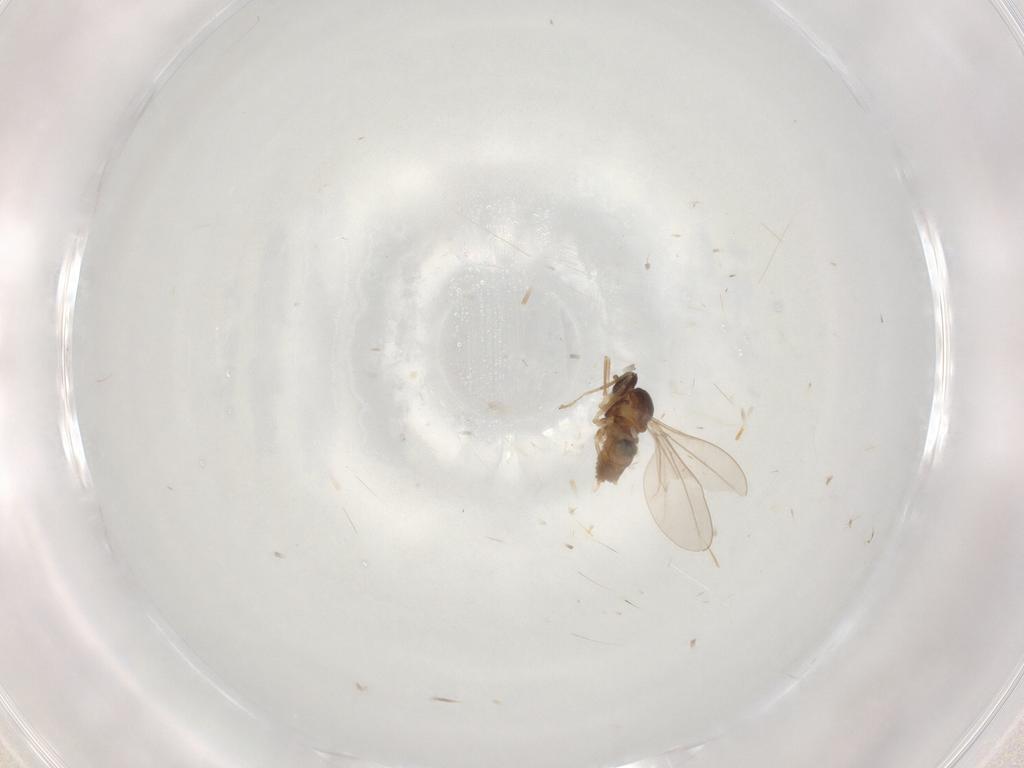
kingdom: Animalia
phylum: Arthropoda
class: Insecta
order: Diptera
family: Cecidomyiidae
